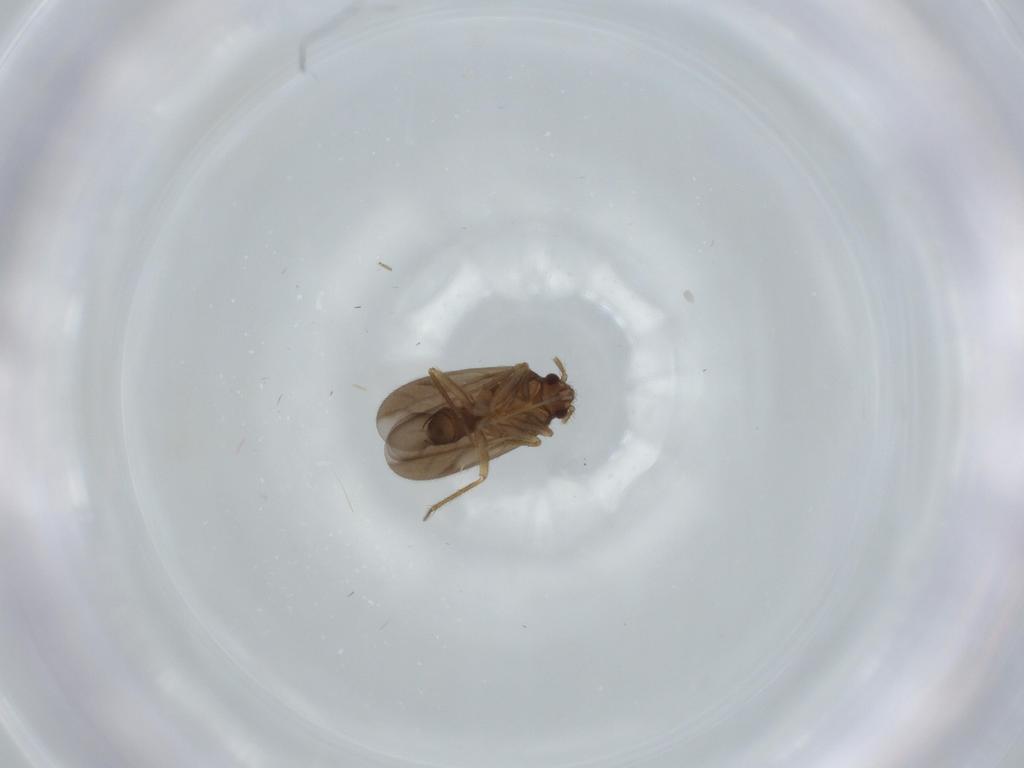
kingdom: Animalia
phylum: Arthropoda
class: Insecta
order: Hemiptera
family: Ceratocombidae
